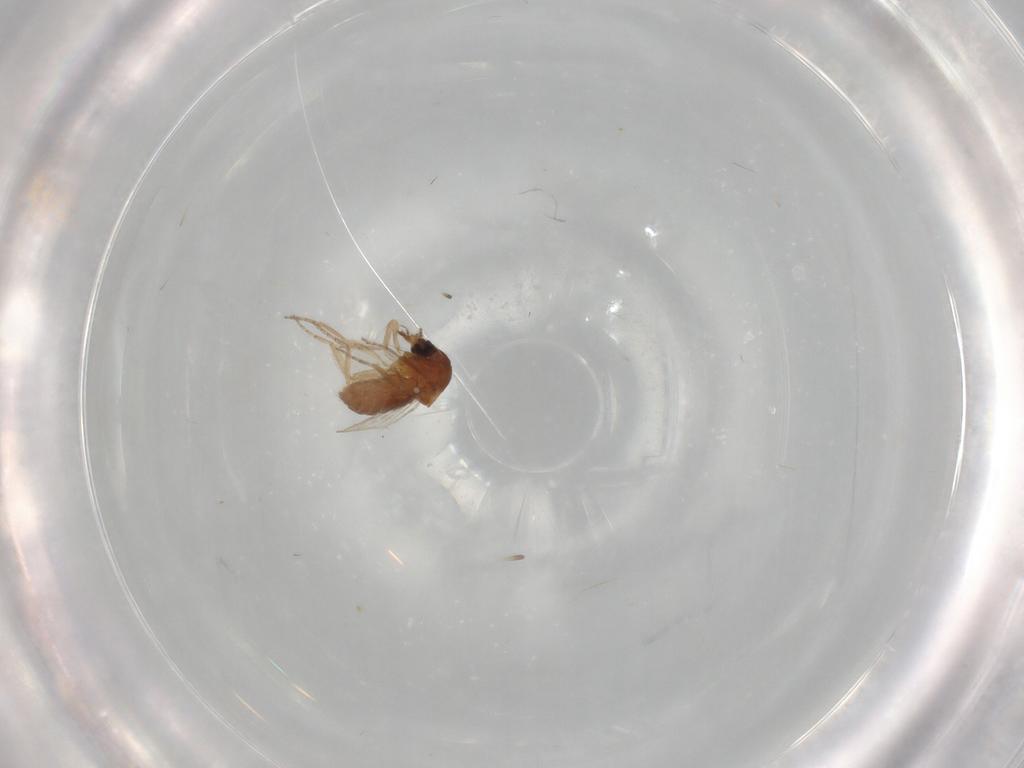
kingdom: Animalia
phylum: Arthropoda
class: Insecta
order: Diptera
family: Ceratopogonidae
